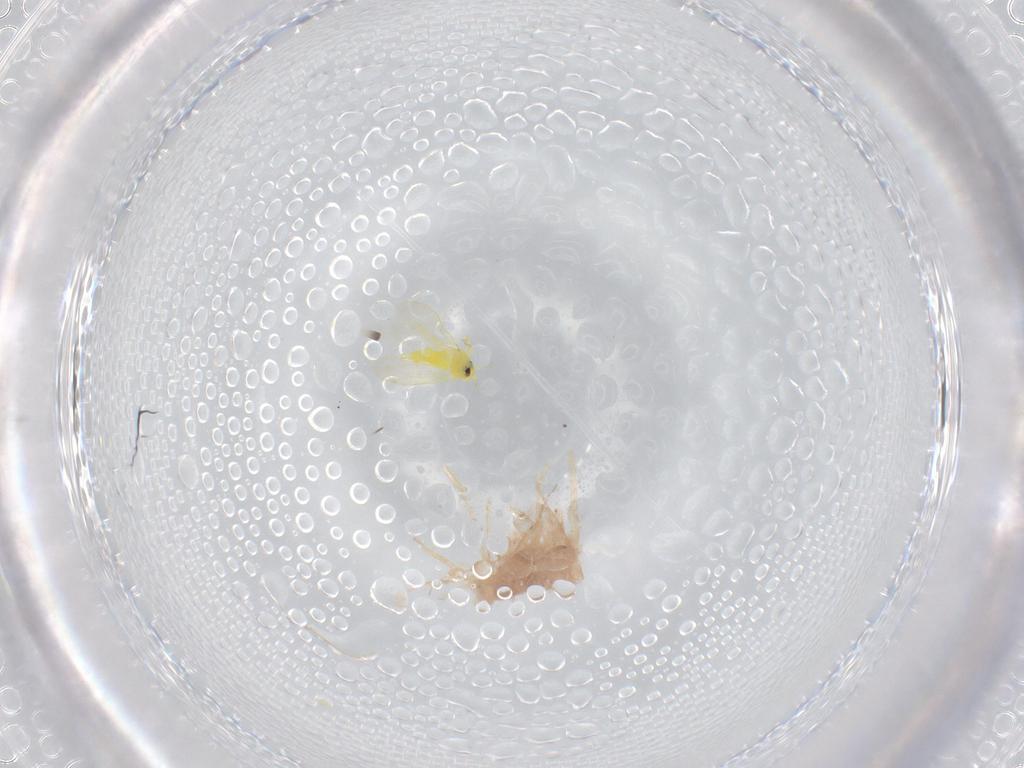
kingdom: Animalia
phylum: Arthropoda
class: Insecta
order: Hemiptera
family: Aleyrodidae
